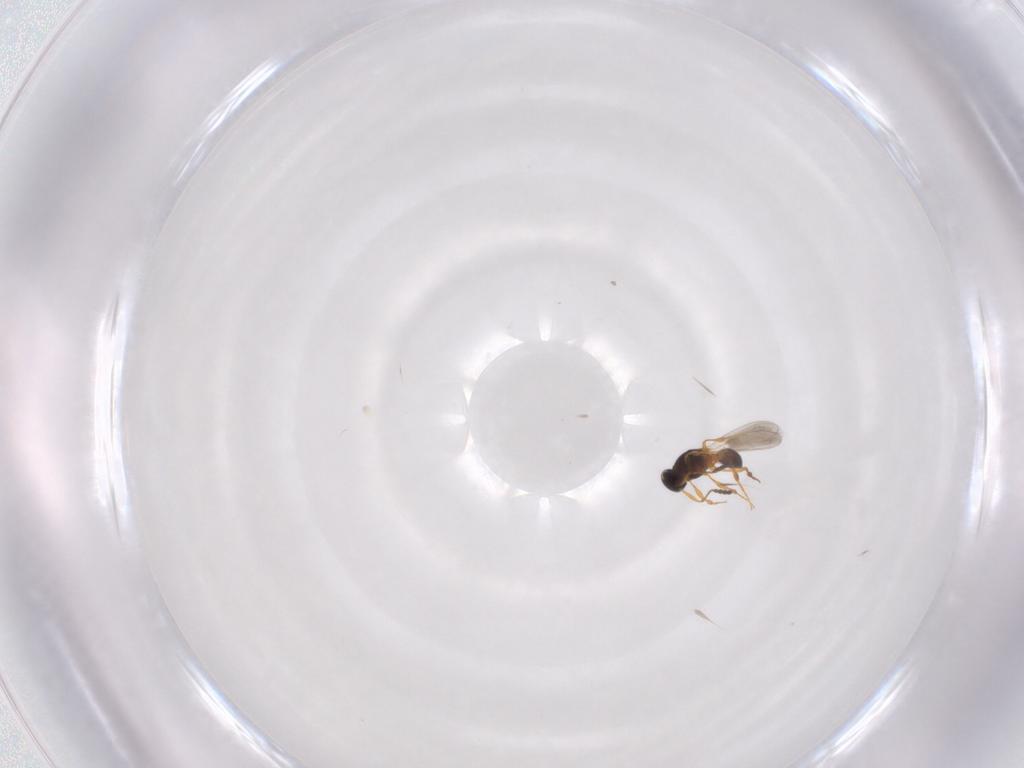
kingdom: Animalia
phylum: Arthropoda
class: Insecta
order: Hymenoptera
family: Platygastridae
